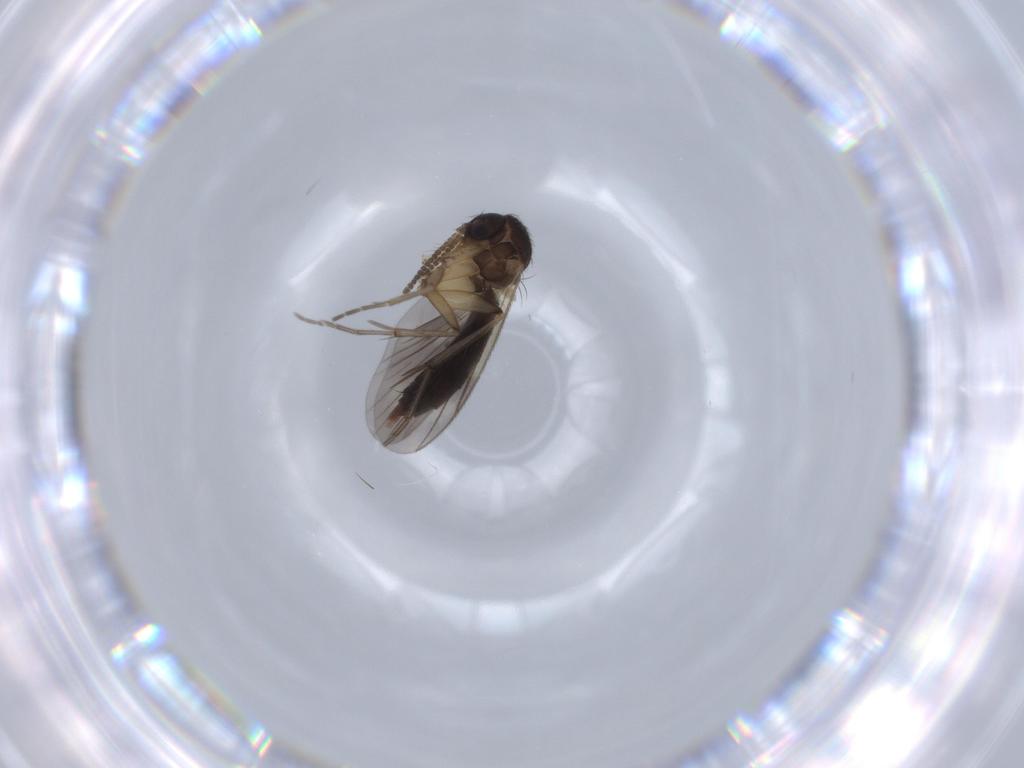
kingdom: Animalia
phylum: Arthropoda
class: Insecta
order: Diptera
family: Mycetophilidae
